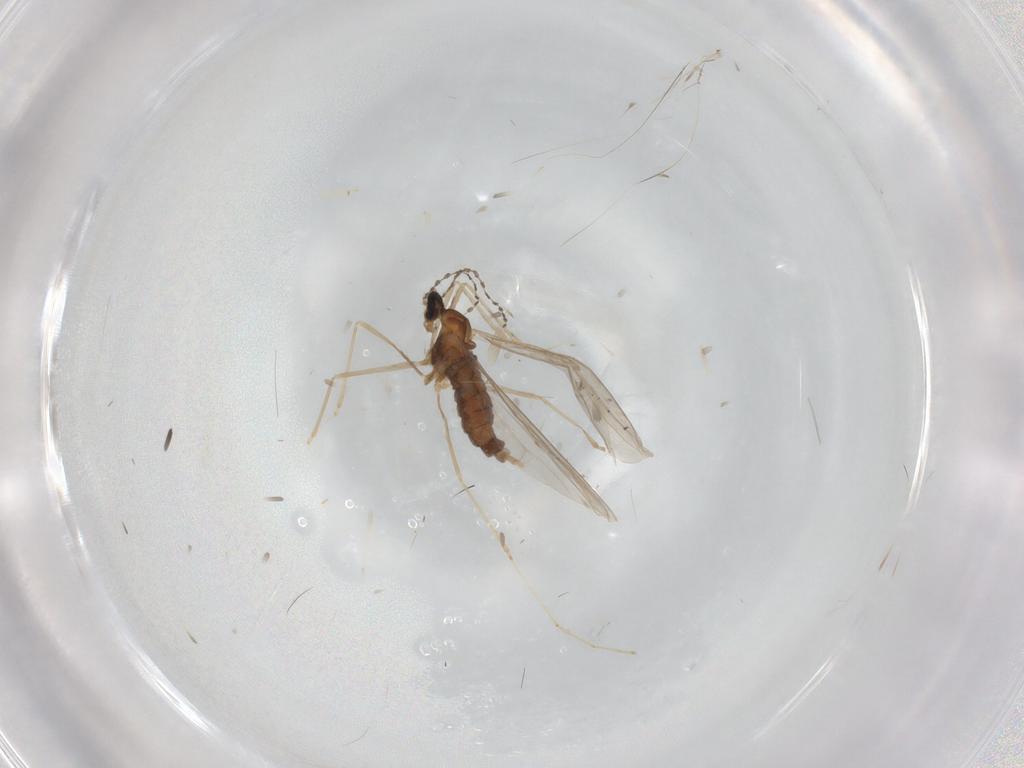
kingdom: Animalia
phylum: Arthropoda
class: Insecta
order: Diptera
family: Cecidomyiidae
